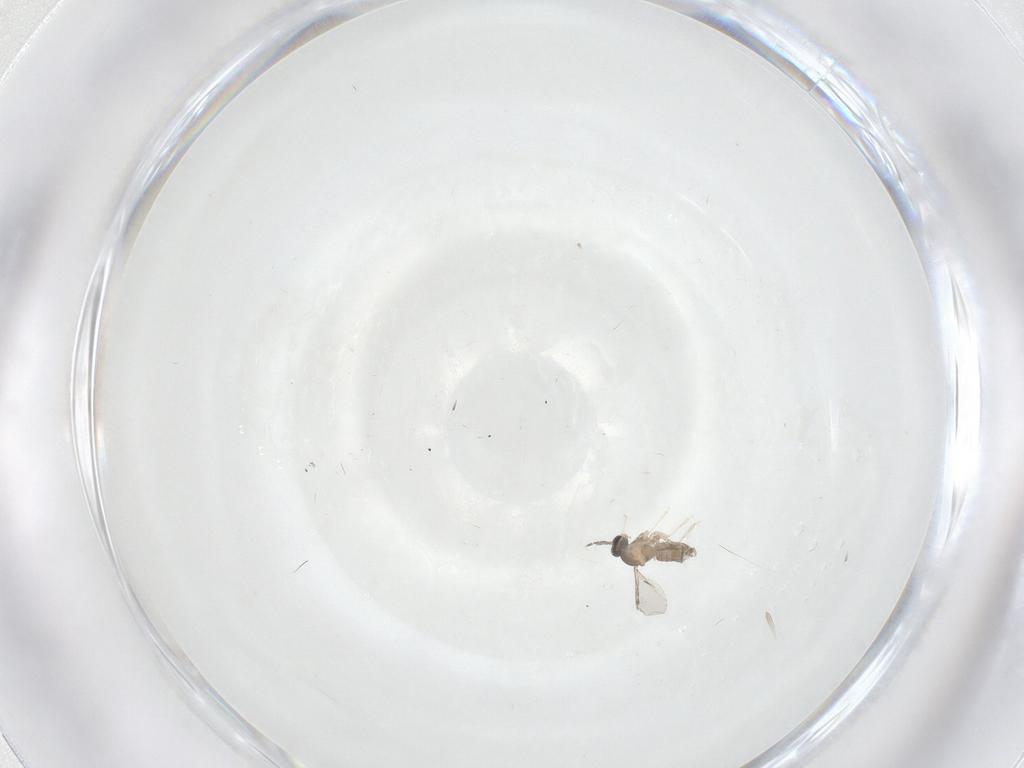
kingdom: Animalia
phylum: Arthropoda
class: Insecta
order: Diptera
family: Cecidomyiidae
